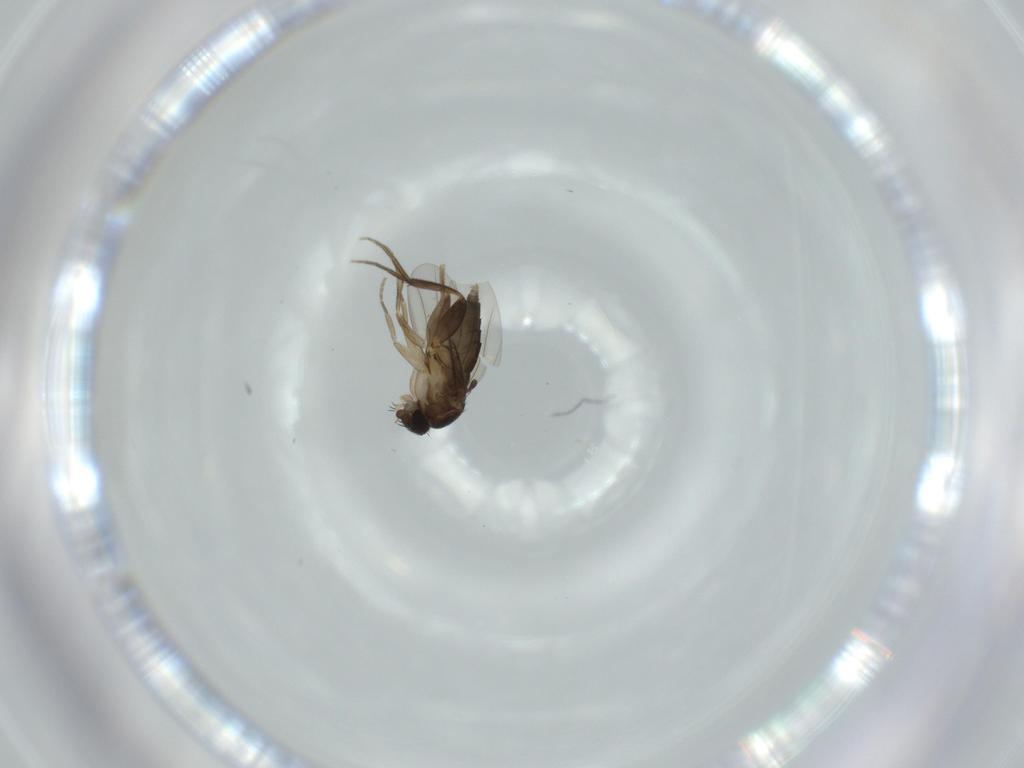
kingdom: Animalia
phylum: Arthropoda
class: Insecta
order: Diptera
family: Phoridae
